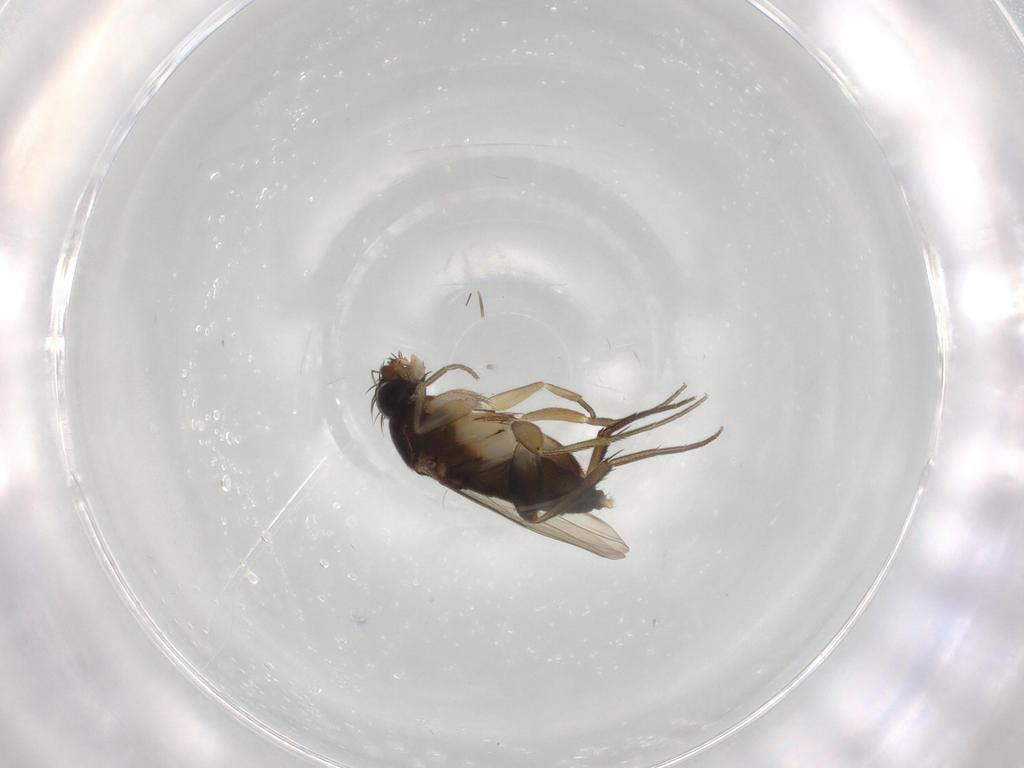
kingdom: Animalia
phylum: Arthropoda
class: Insecta
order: Diptera
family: Phoridae
